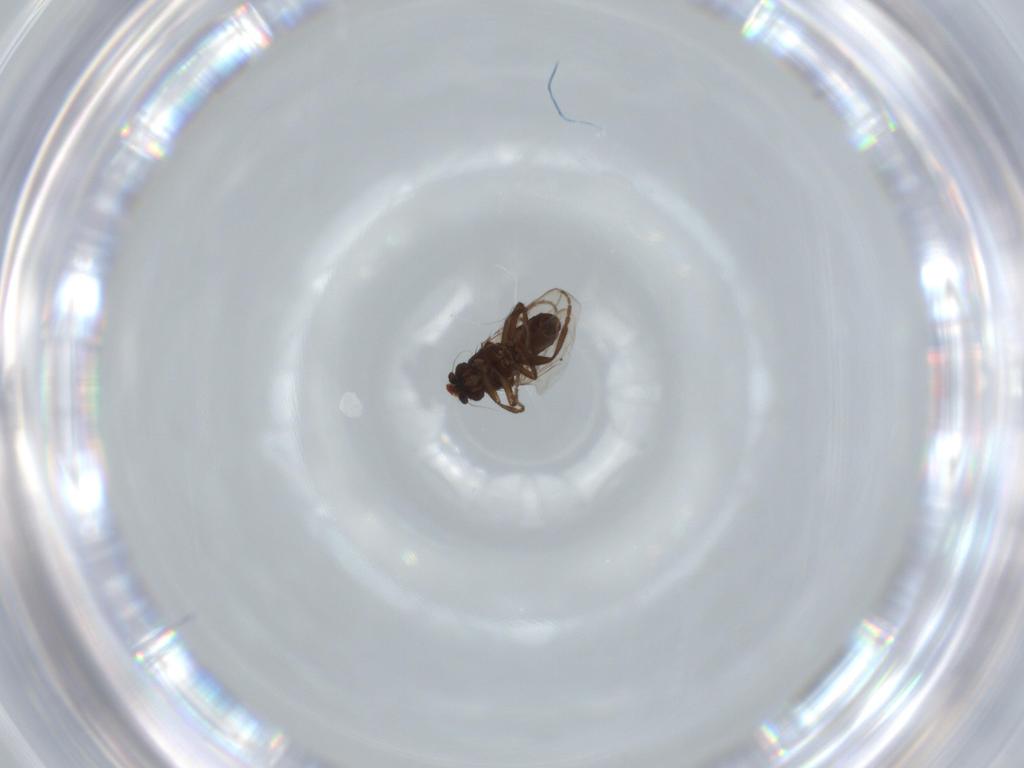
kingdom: Animalia
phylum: Arthropoda
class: Insecta
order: Diptera
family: Sphaeroceridae
